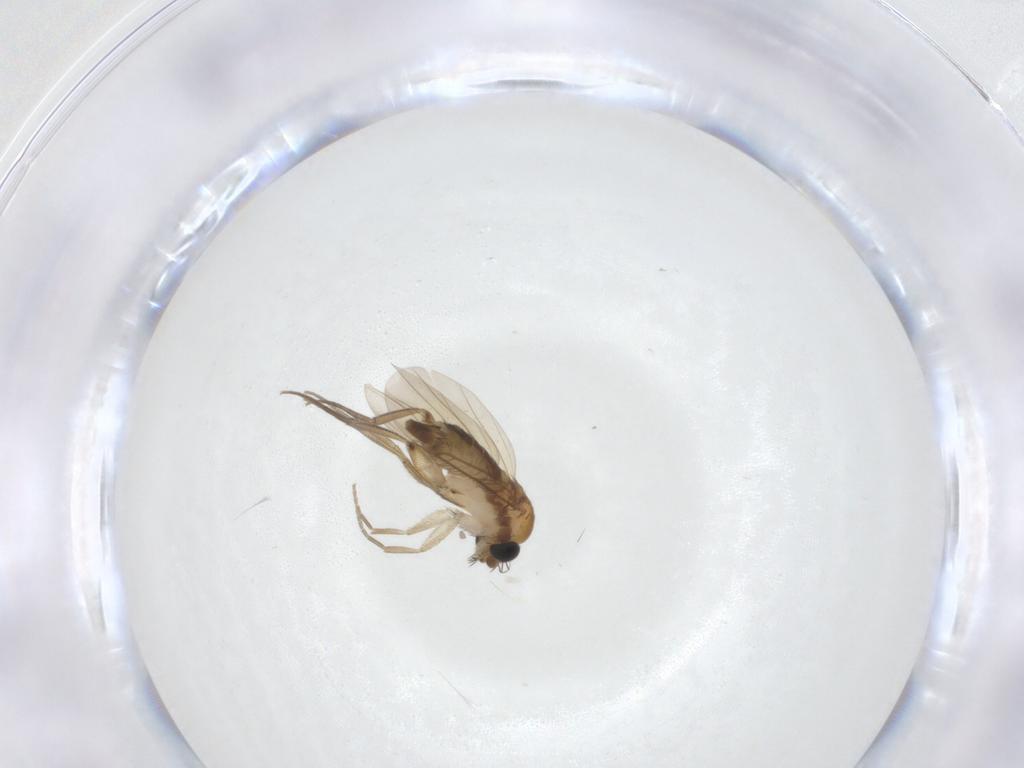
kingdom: Animalia
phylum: Arthropoda
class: Insecta
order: Diptera
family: Phoridae
